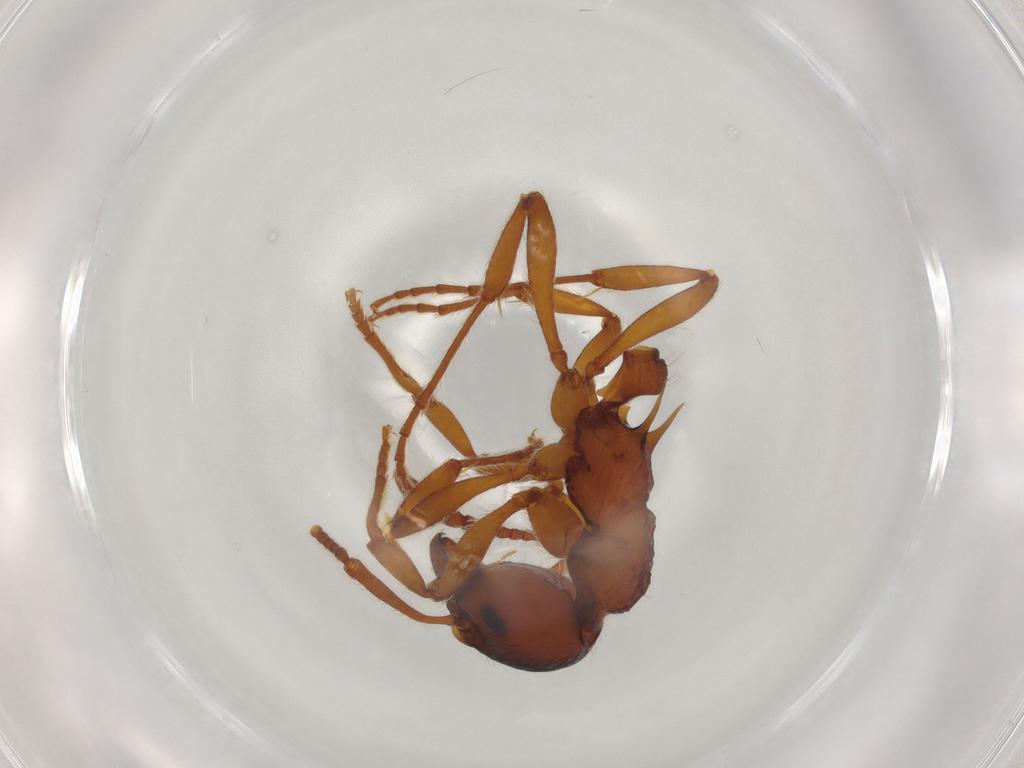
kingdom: Animalia
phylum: Arthropoda
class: Insecta
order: Hymenoptera
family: Formicidae
